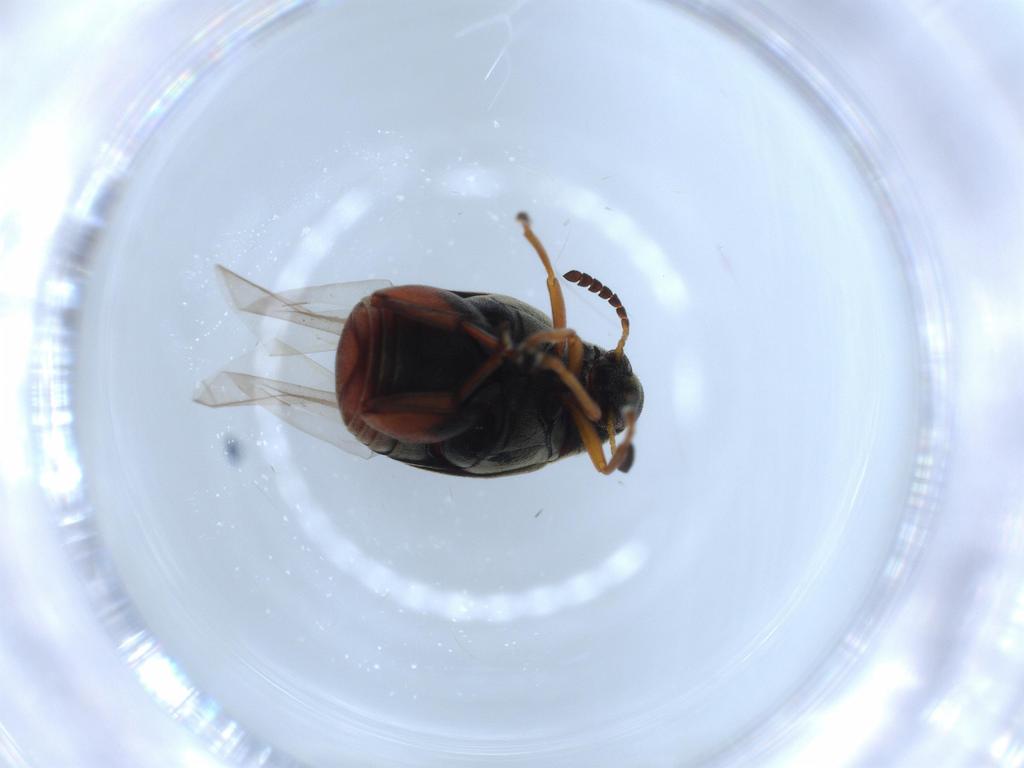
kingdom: Animalia
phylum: Arthropoda
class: Insecta
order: Coleoptera
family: Chrysomelidae
